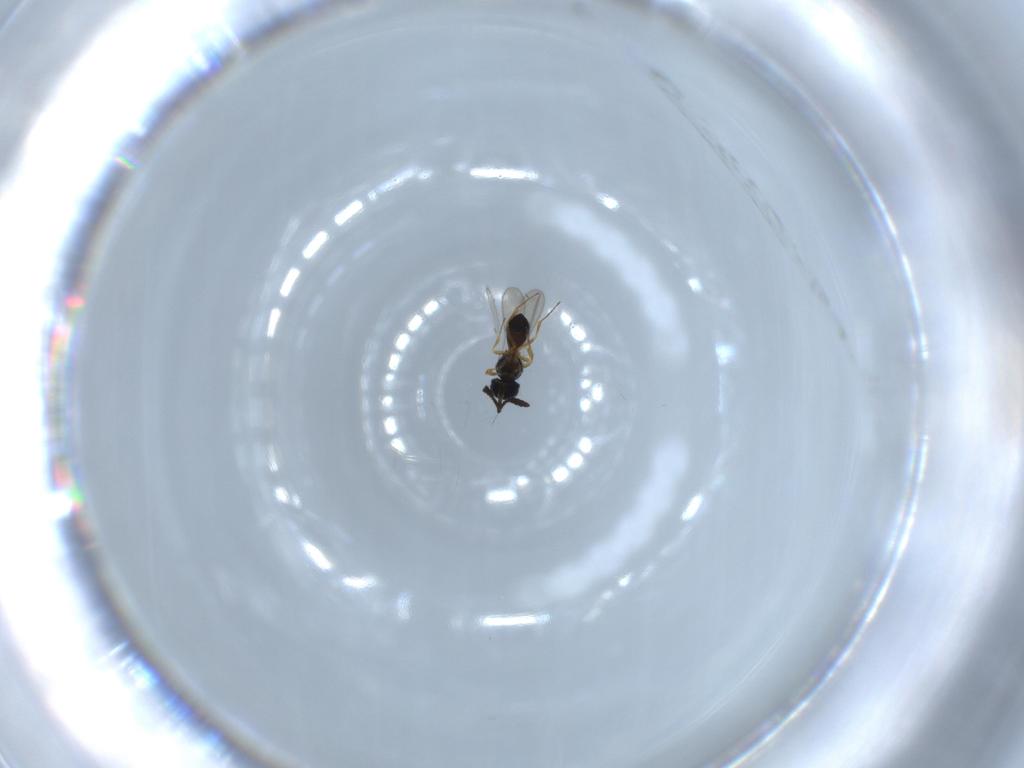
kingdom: Animalia
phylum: Arthropoda
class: Insecta
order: Hymenoptera
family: Scelionidae
